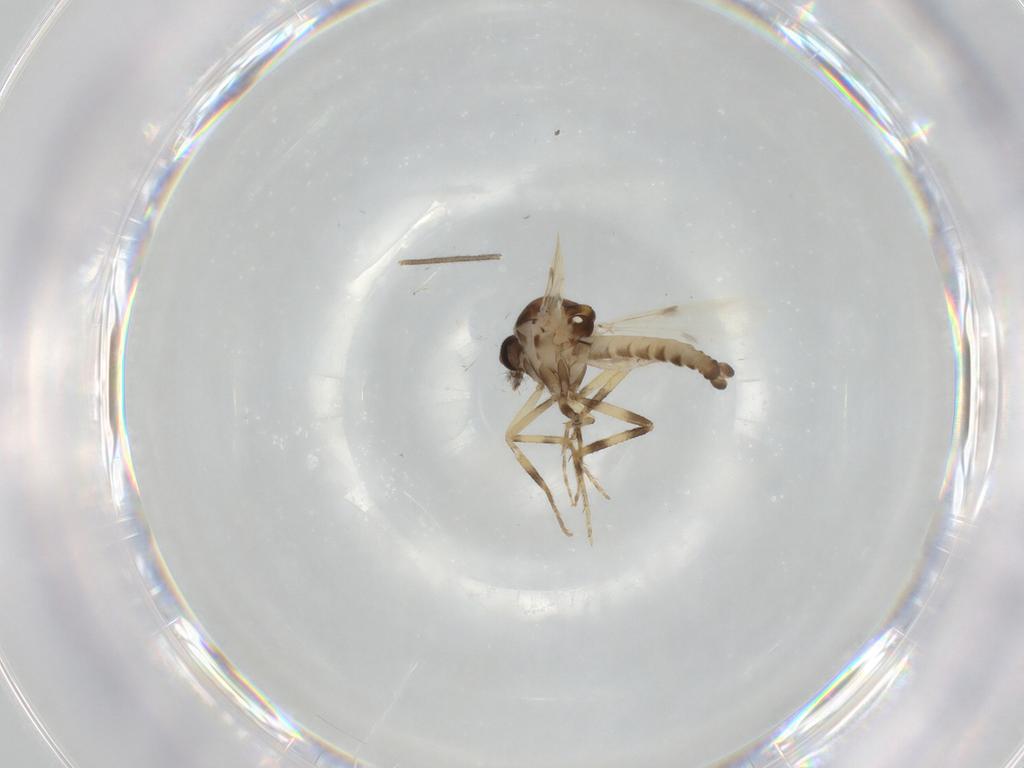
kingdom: Animalia
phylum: Arthropoda
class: Insecta
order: Diptera
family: Ceratopogonidae
